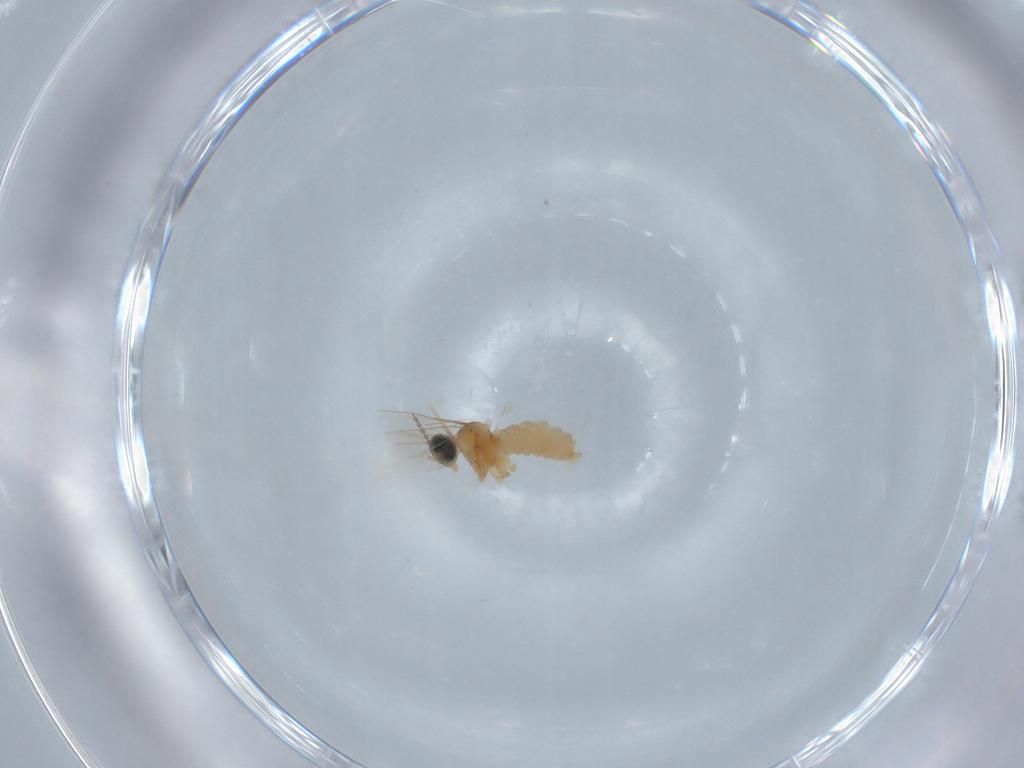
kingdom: Animalia
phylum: Arthropoda
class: Insecta
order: Diptera
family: Cecidomyiidae
